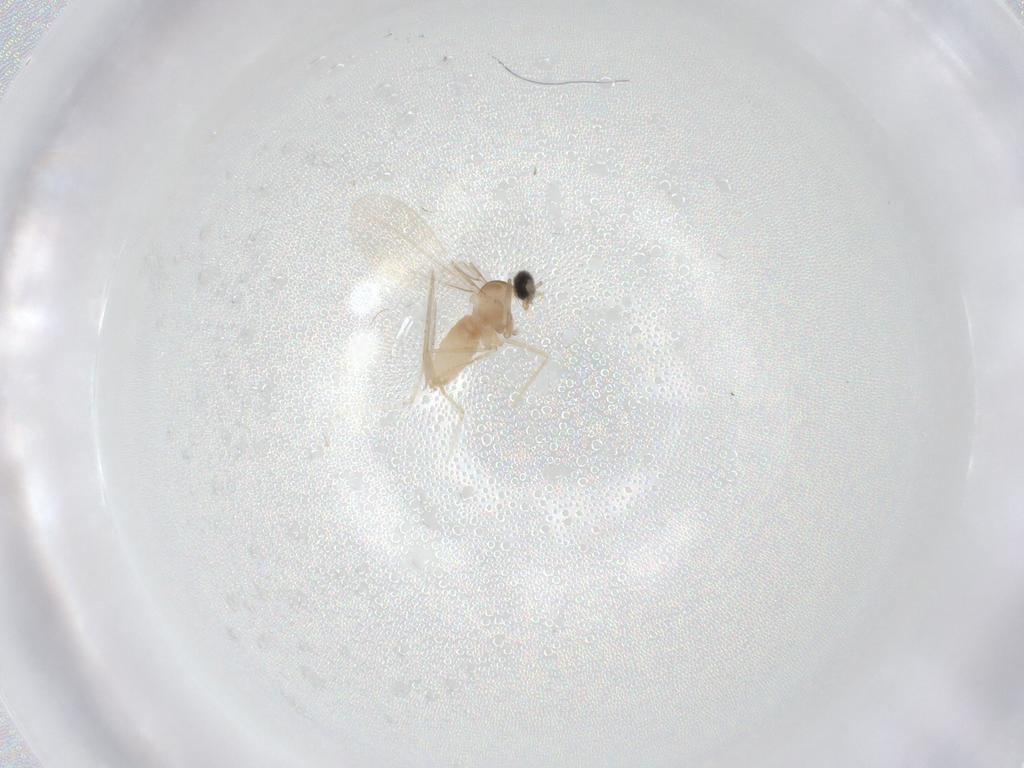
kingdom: Animalia
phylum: Arthropoda
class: Insecta
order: Diptera
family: Cecidomyiidae
